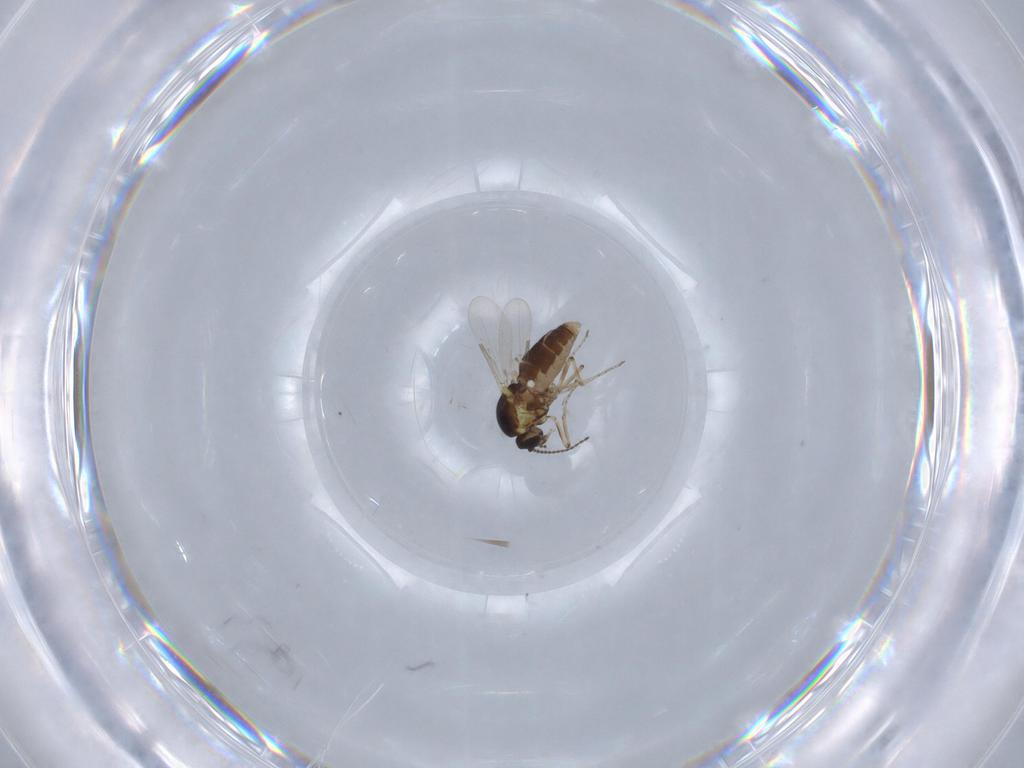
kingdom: Animalia
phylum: Arthropoda
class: Insecta
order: Diptera
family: Ceratopogonidae
